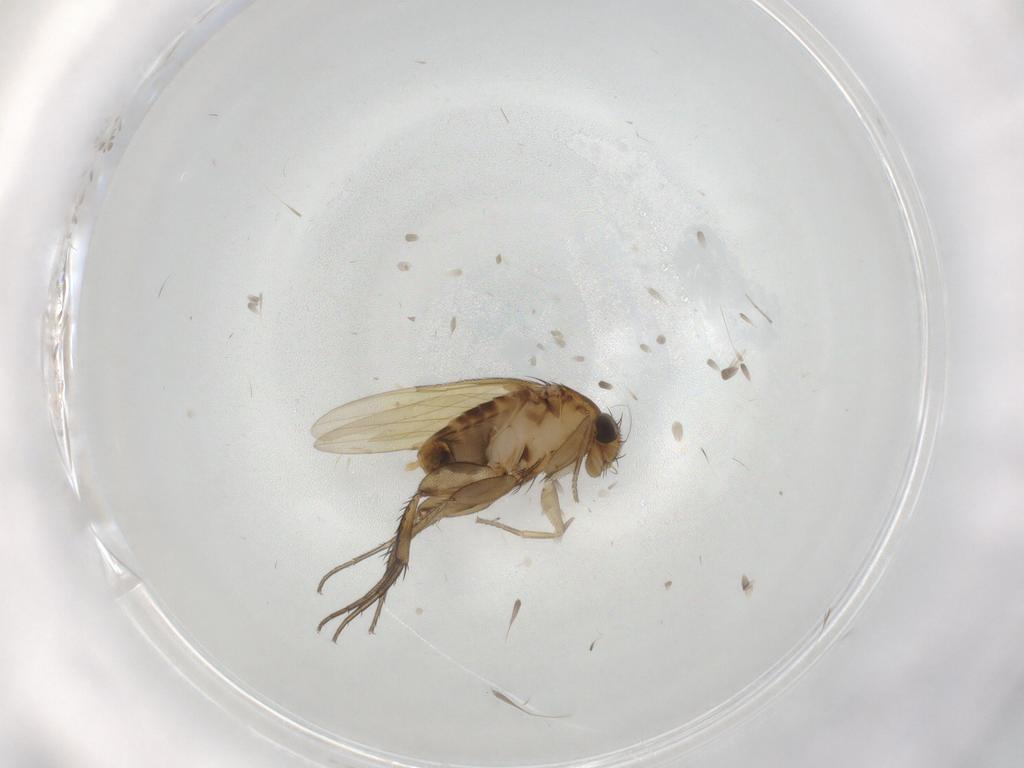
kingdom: Animalia
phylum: Arthropoda
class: Insecta
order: Diptera
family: Phoridae
